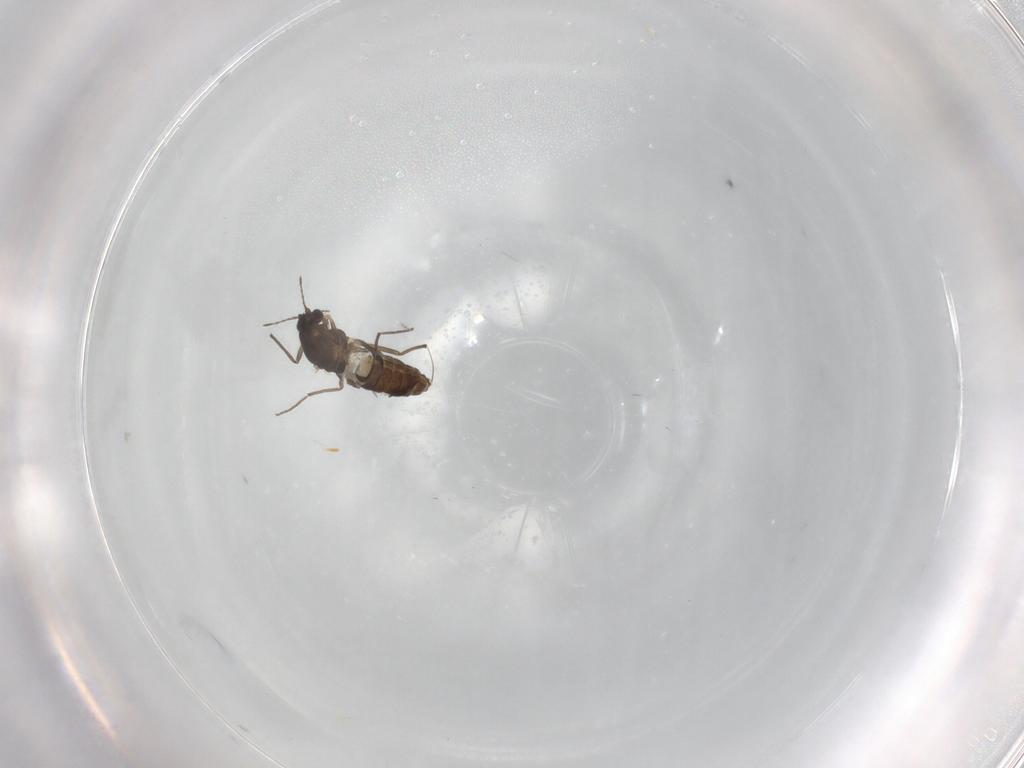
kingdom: Animalia
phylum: Arthropoda
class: Insecta
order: Diptera
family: Chironomidae
